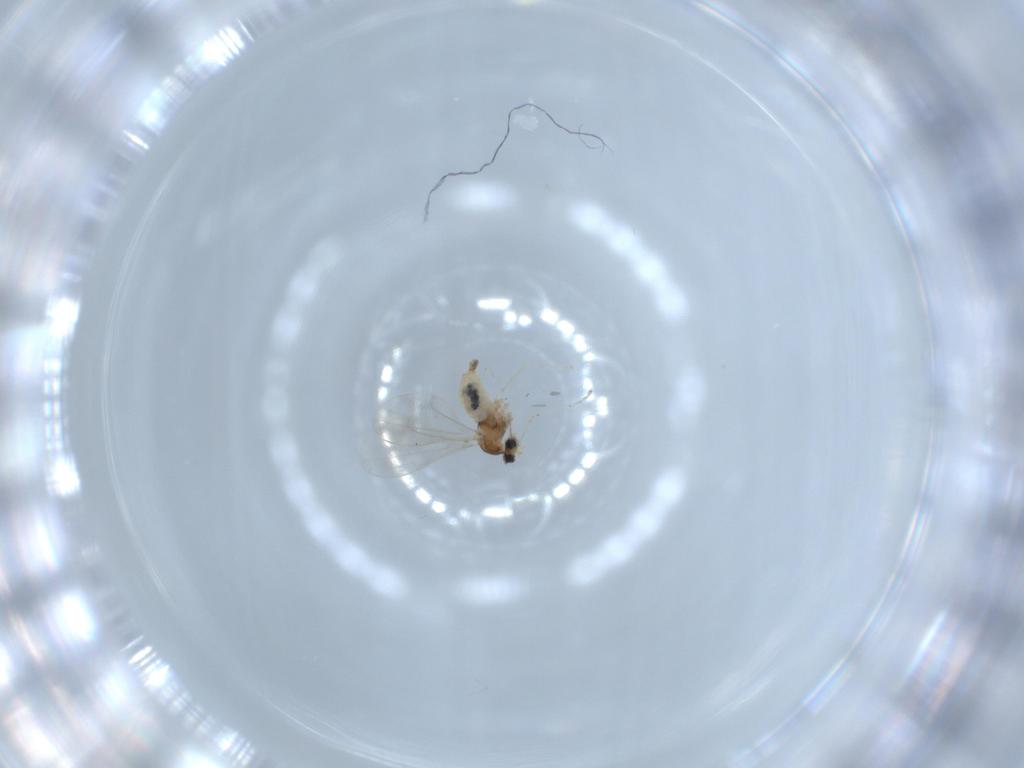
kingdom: Animalia
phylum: Arthropoda
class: Insecta
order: Diptera
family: Cecidomyiidae
